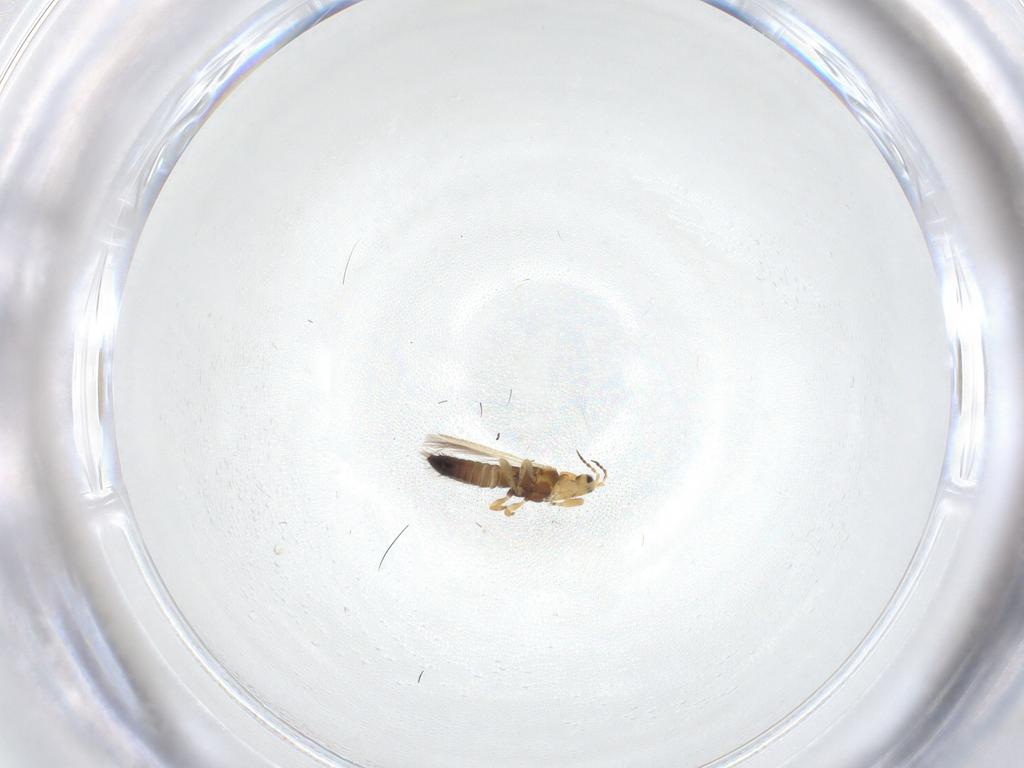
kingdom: Animalia
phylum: Arthropoda
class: Insecta
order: Thysanoptera
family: Melanthripidae
